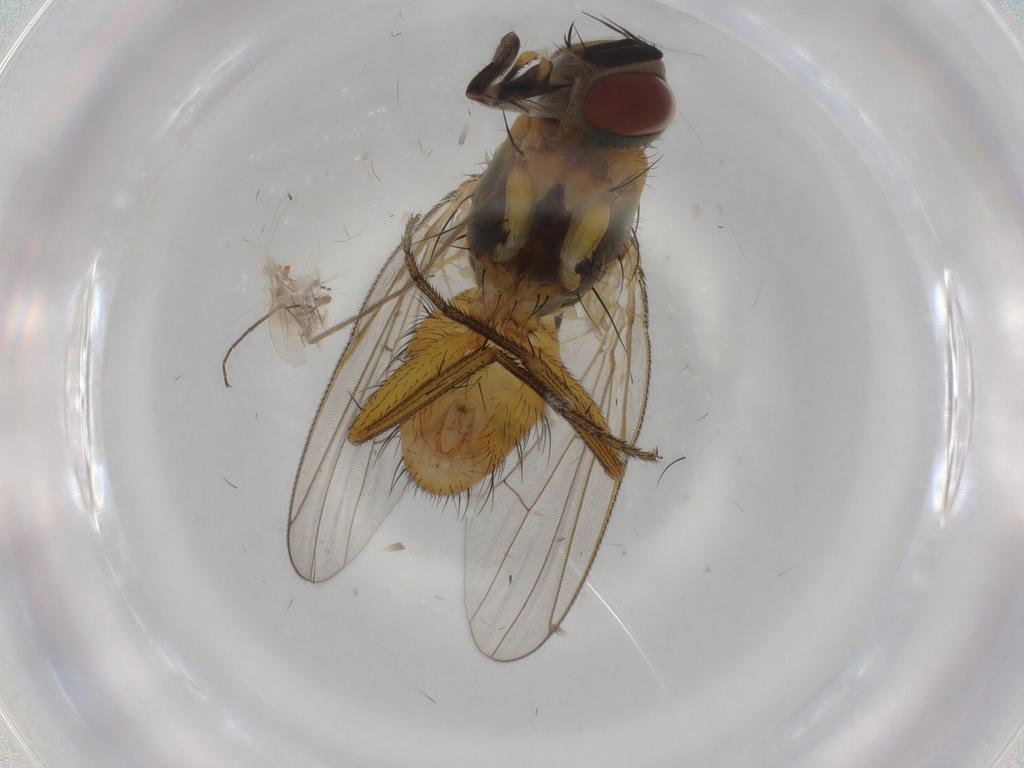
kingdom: Animalia
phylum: Arthropoda
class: Insecta
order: Diptera
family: Muscidae
